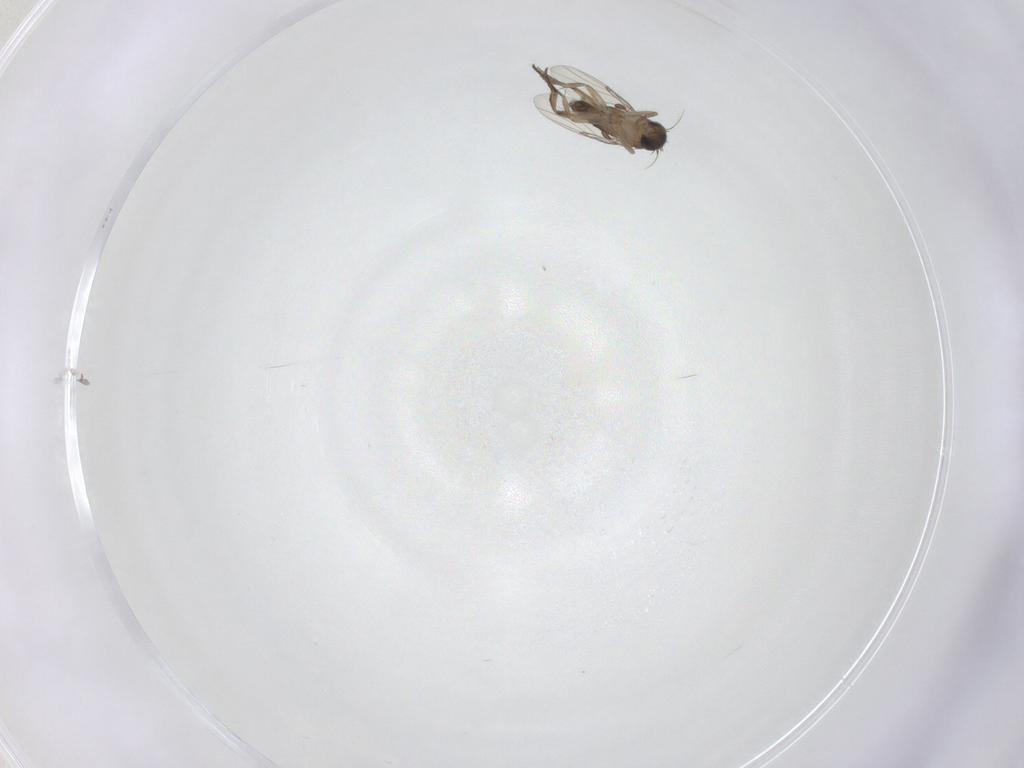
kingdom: Animalia
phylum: Arthropoda
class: Insecta
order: Diptera
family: Phoridae
